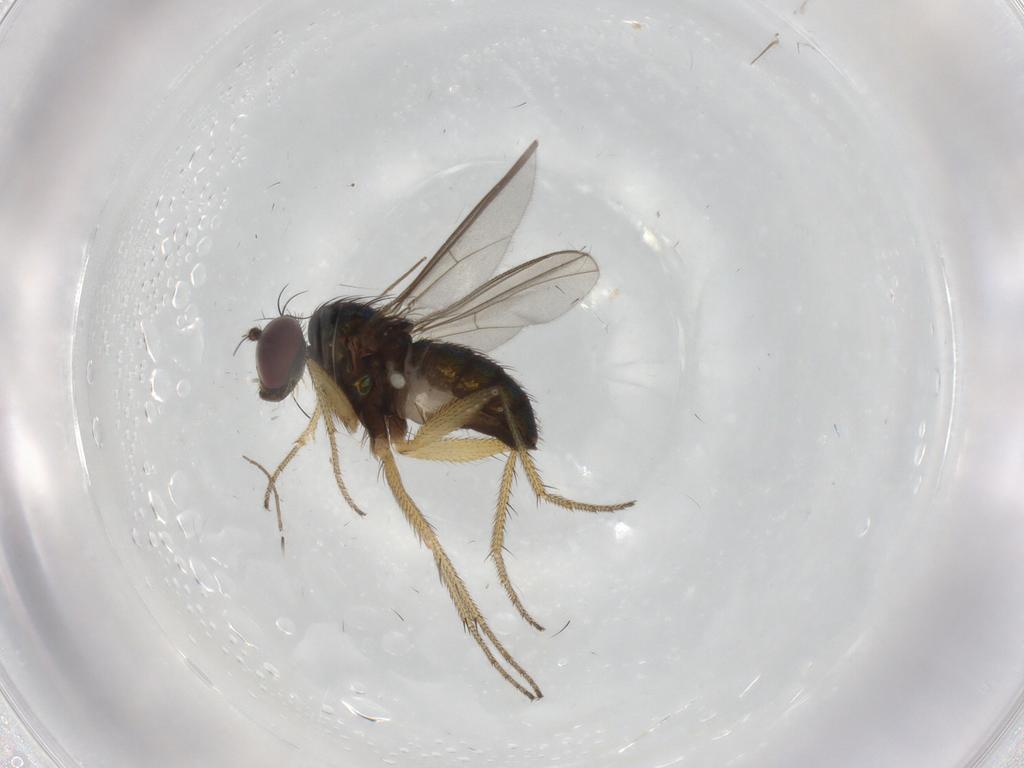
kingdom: Animalia
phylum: Arthropoda
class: Insecta
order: Diptera
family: Dolichopodidae
